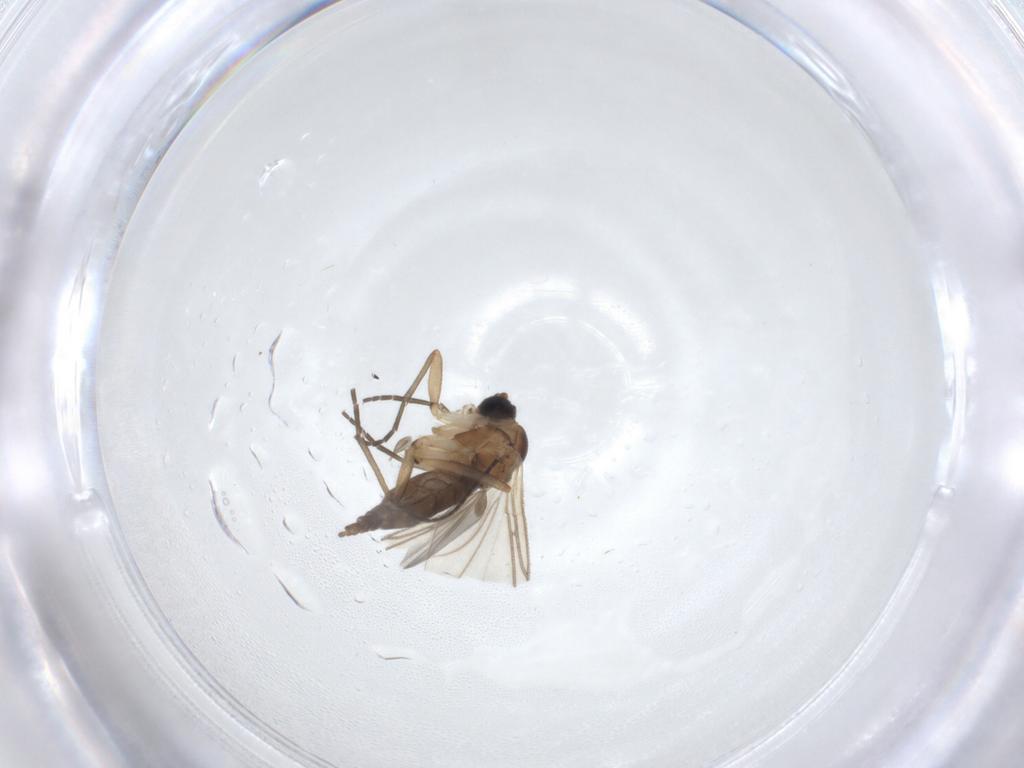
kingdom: Animalia
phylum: Arthropoda
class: Insecta
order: Diptera
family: Sciaridae
